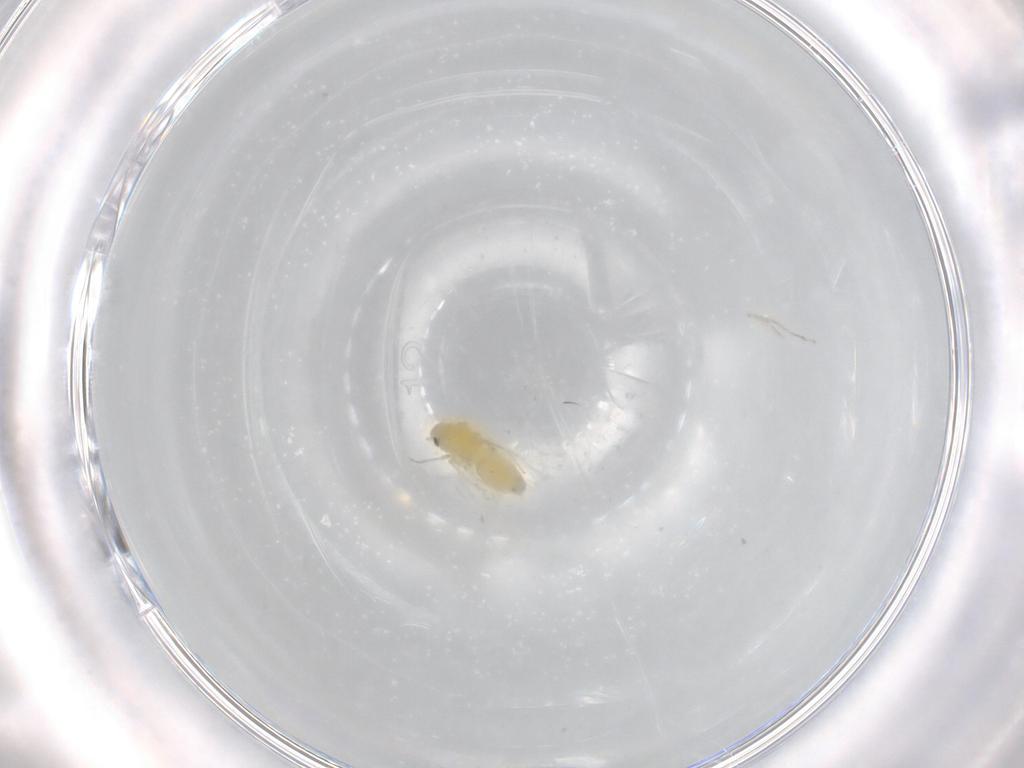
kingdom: Animalia
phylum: Arthropoda
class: Insecta
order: Hemiptera
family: Aleyrodidae
